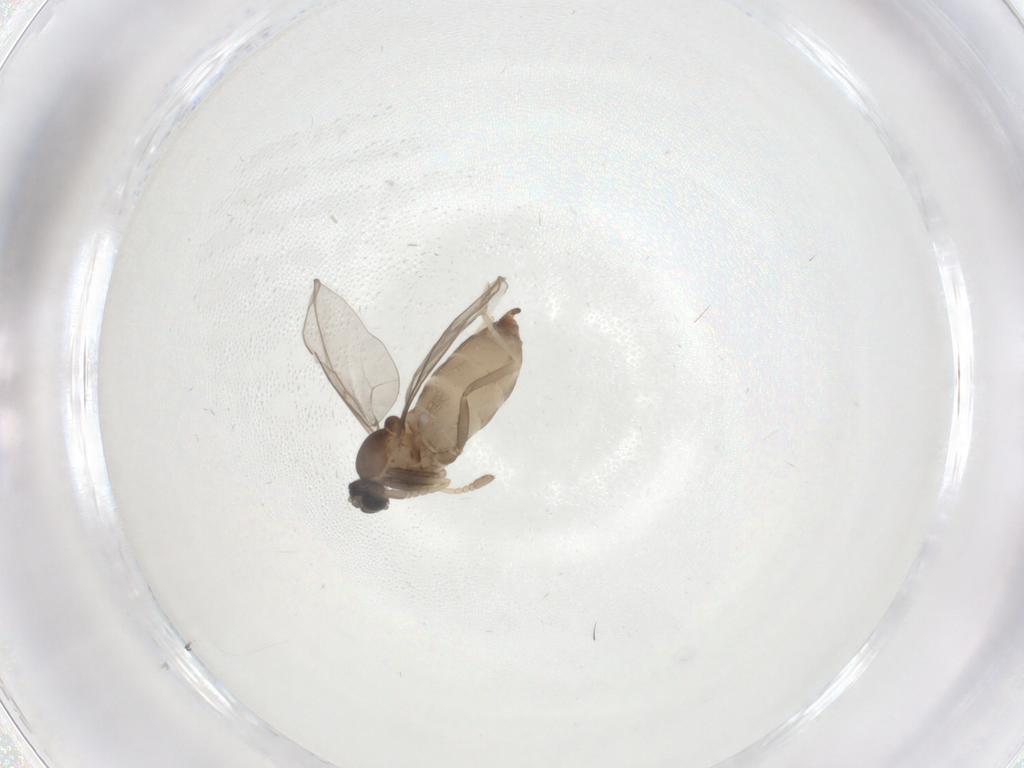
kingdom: Animalia
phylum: Arthropoda
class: Insecta
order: Diptera
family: Cecidomyiidae
